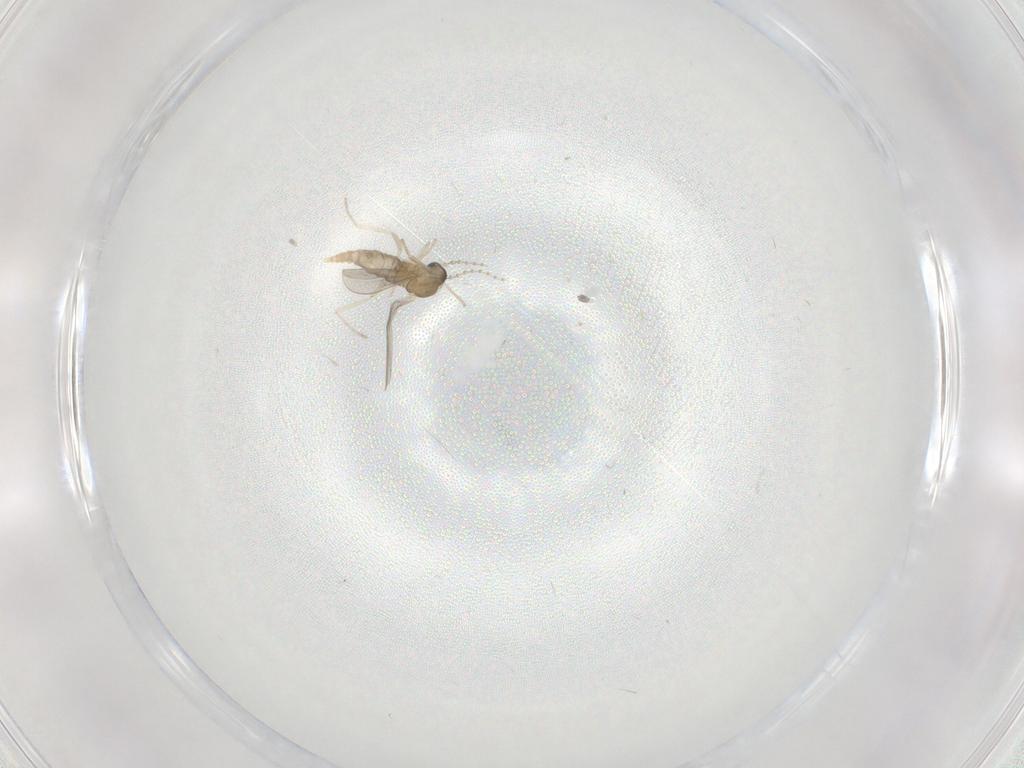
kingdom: Animalia
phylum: Arthropoda
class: Insecta
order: Diptera
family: Cecidomyiidae
